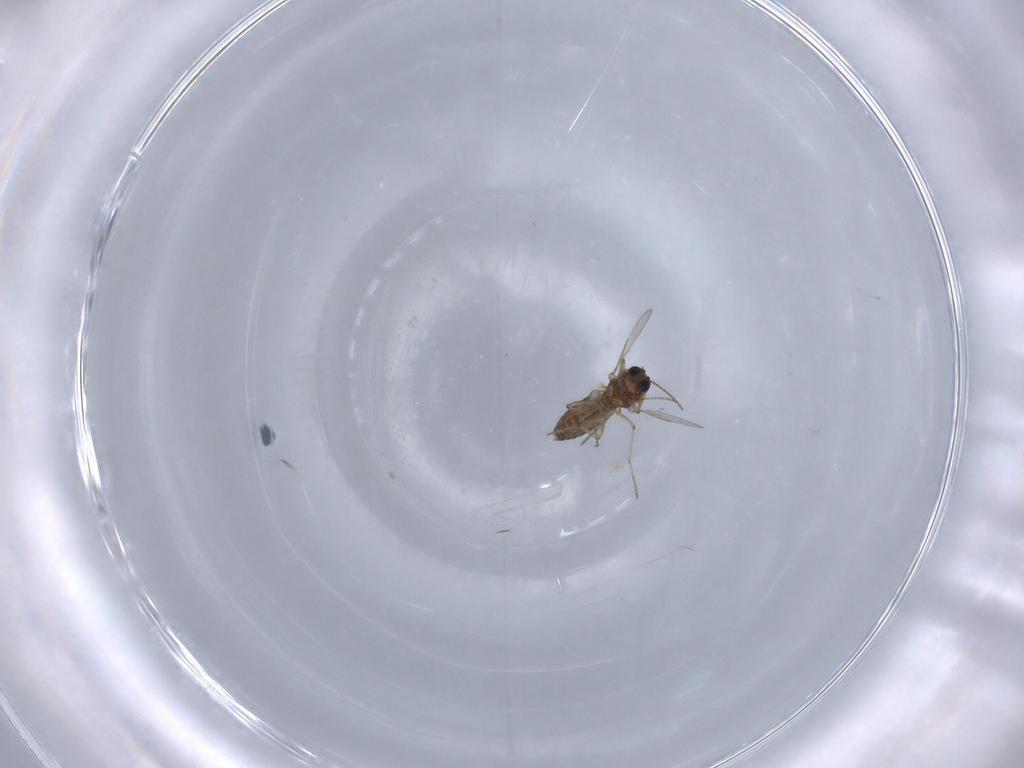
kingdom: Animalia
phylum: Arthropoda
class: Insecta
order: Diptera
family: Ceratopogonidae
